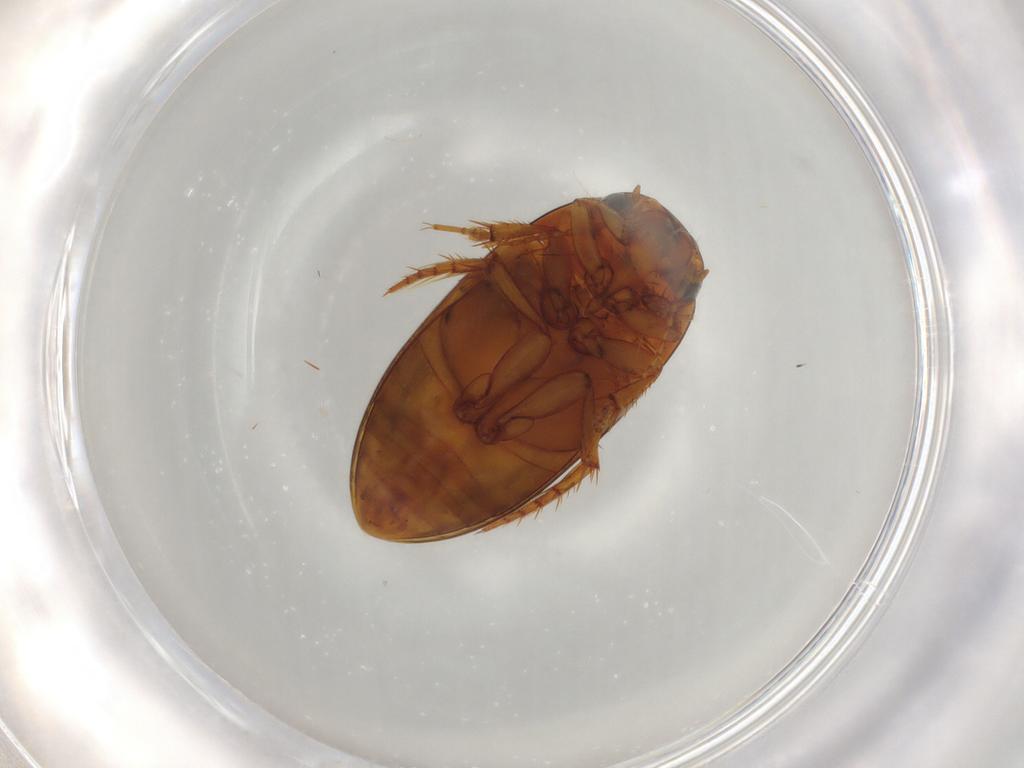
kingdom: Animalia
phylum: Arthropoda
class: Insecta
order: Coleoptera
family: Dytiscidae
